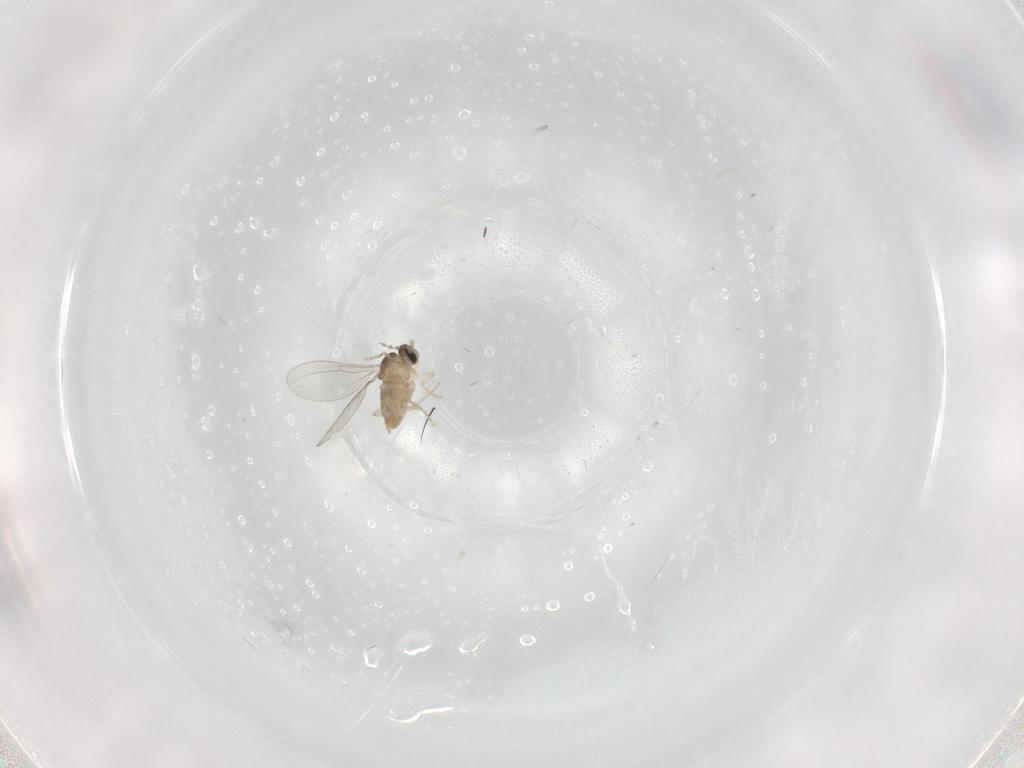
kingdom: Animalia
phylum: Arthropoda
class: Insecta
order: Diptera
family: Cecidomyiidae
